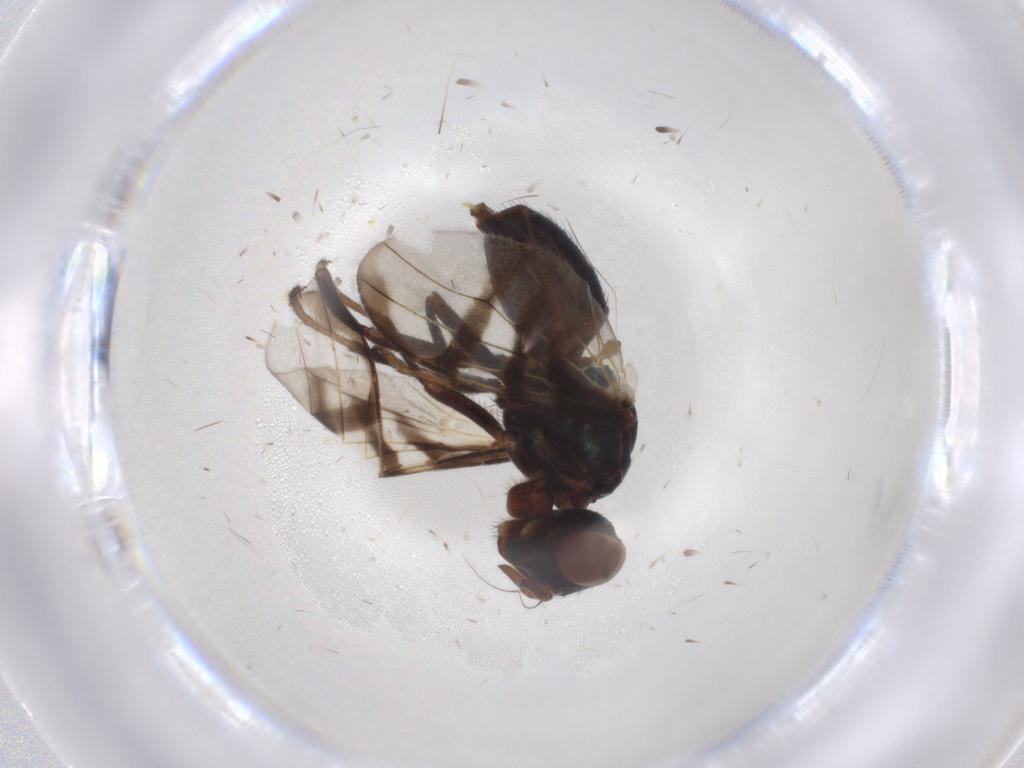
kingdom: Animalia
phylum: Arthropoda
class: Insecta
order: Diptera
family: Platystomatidae
